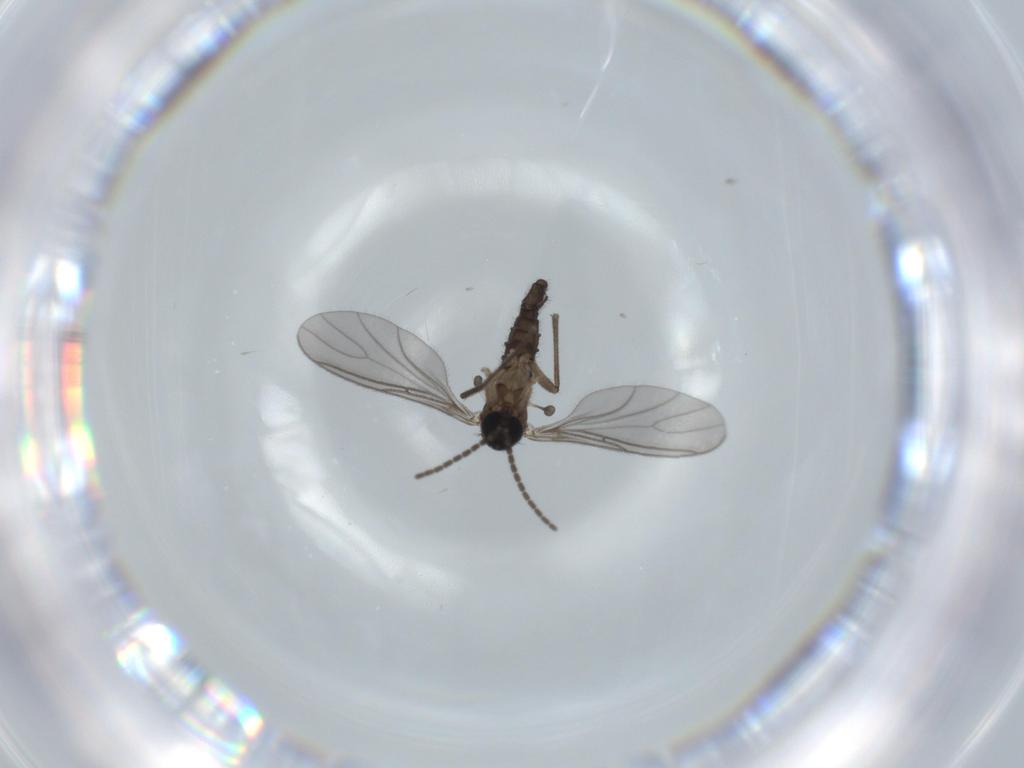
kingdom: Animalia
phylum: Arthropoda
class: Insecta
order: Diptera
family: Sciaridae
